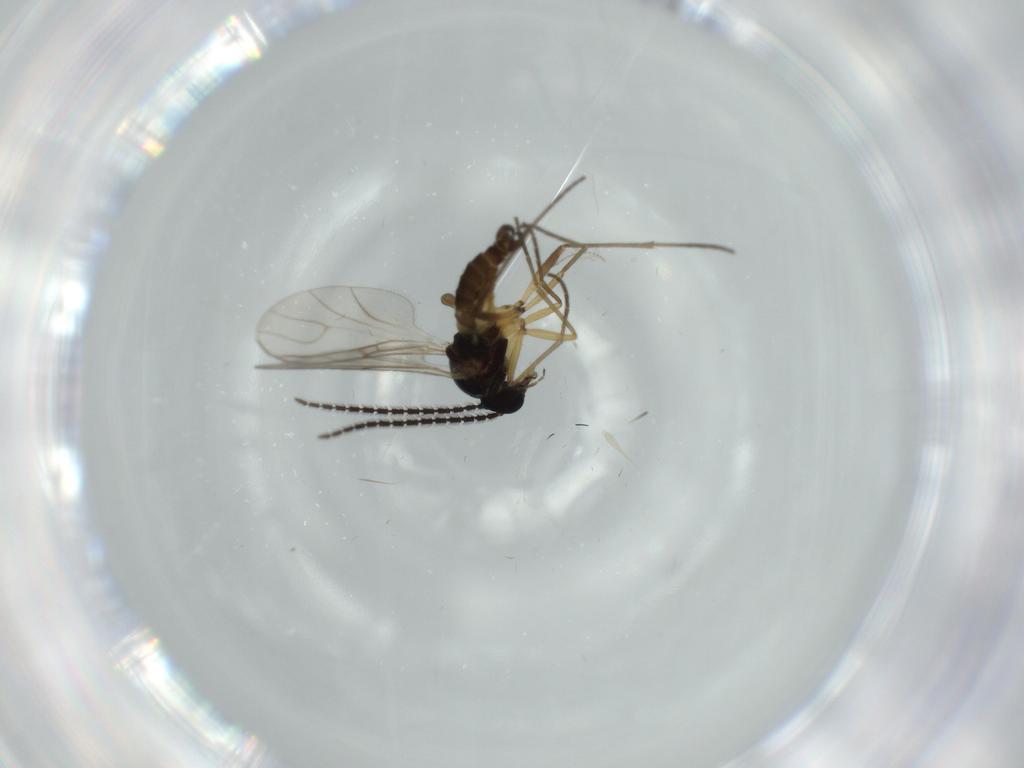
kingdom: Animalia
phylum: Arthropoda
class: Insecta
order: Diptera
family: Sciaridae
